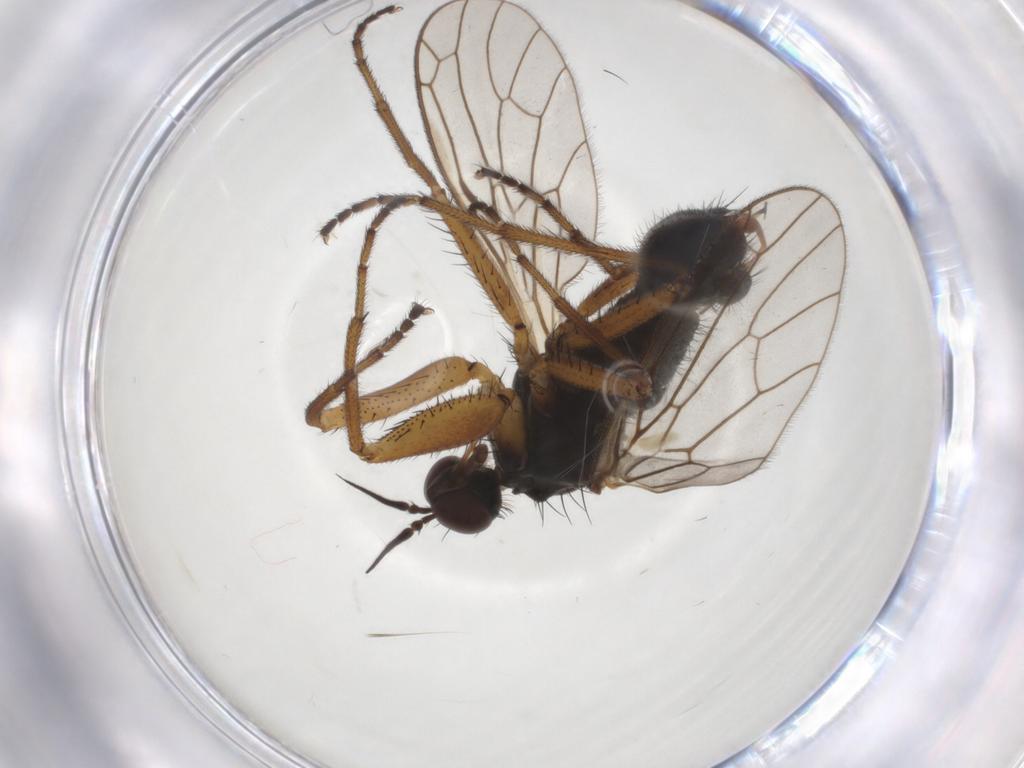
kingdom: Animalia
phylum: Arthropoda
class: Insecta
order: Diptera
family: Chironomidae
